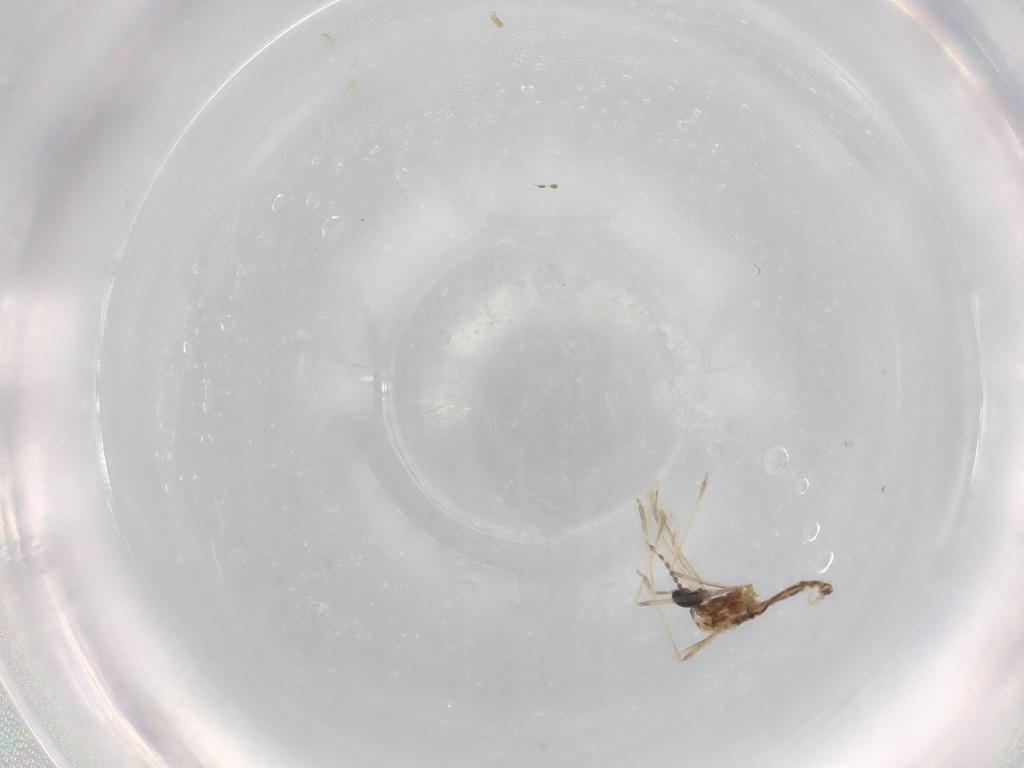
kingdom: Animalia
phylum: Arthropoda
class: Insecta
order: Diptera
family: Cecidomyiidae
